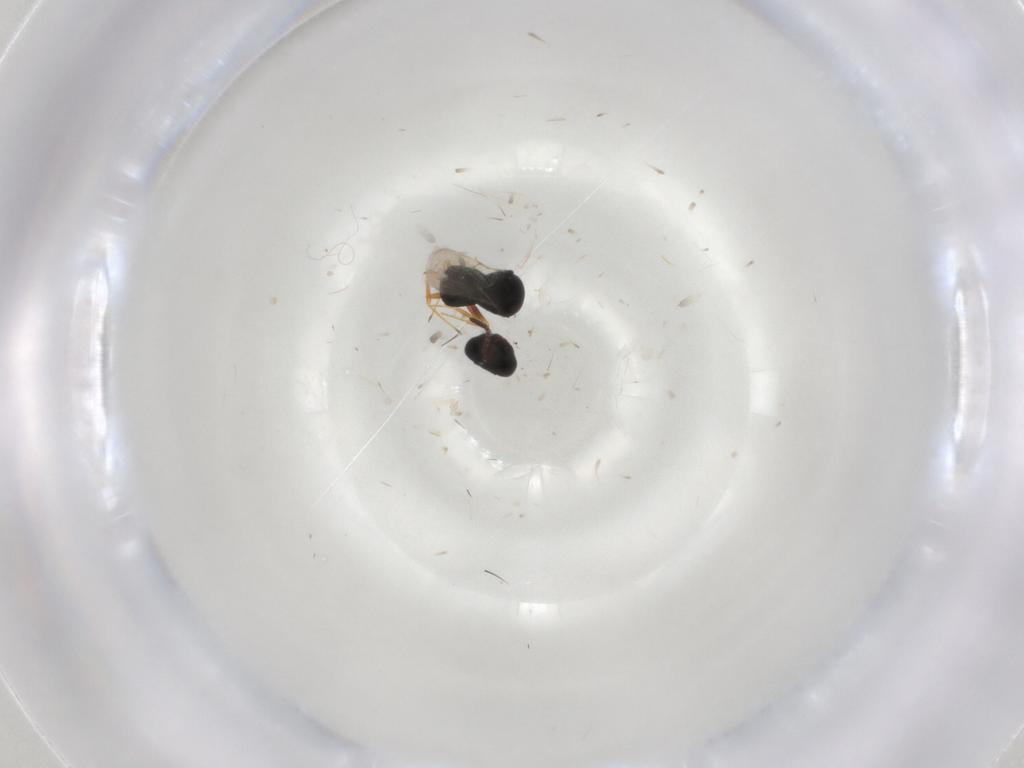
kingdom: Animalia
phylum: Arthropoda
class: Insecta
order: Hymenoptera
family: Scelionidae
